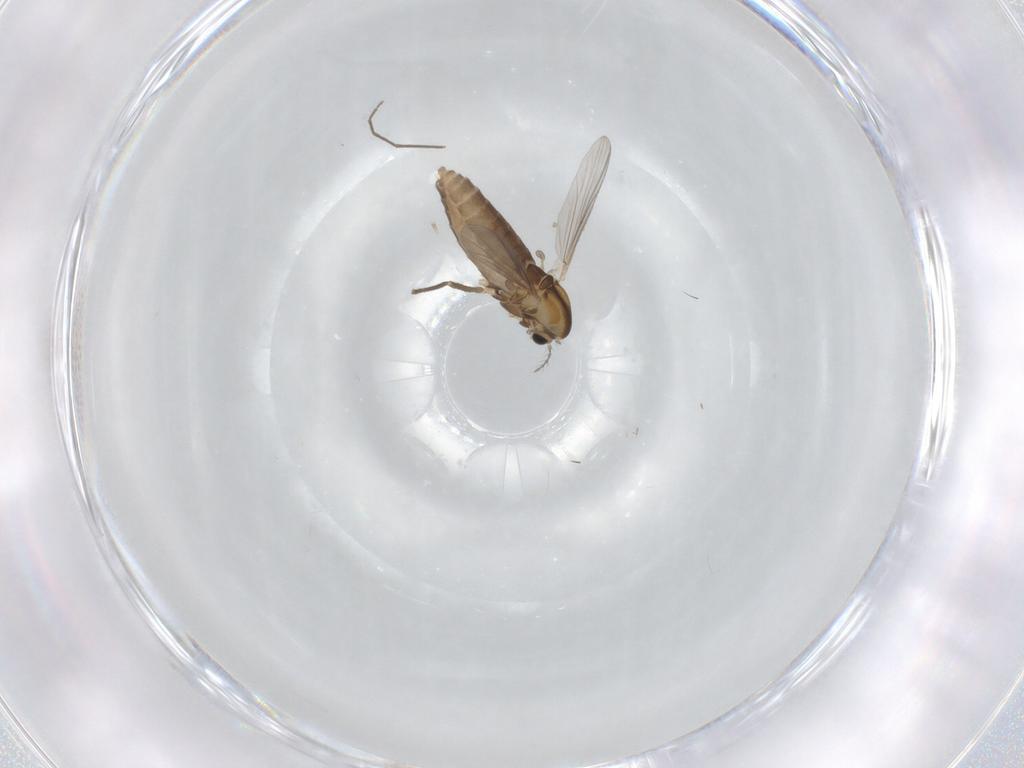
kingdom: Animalia
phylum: Arthropoda
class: Insecta
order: Diptera
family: Chironomidae
